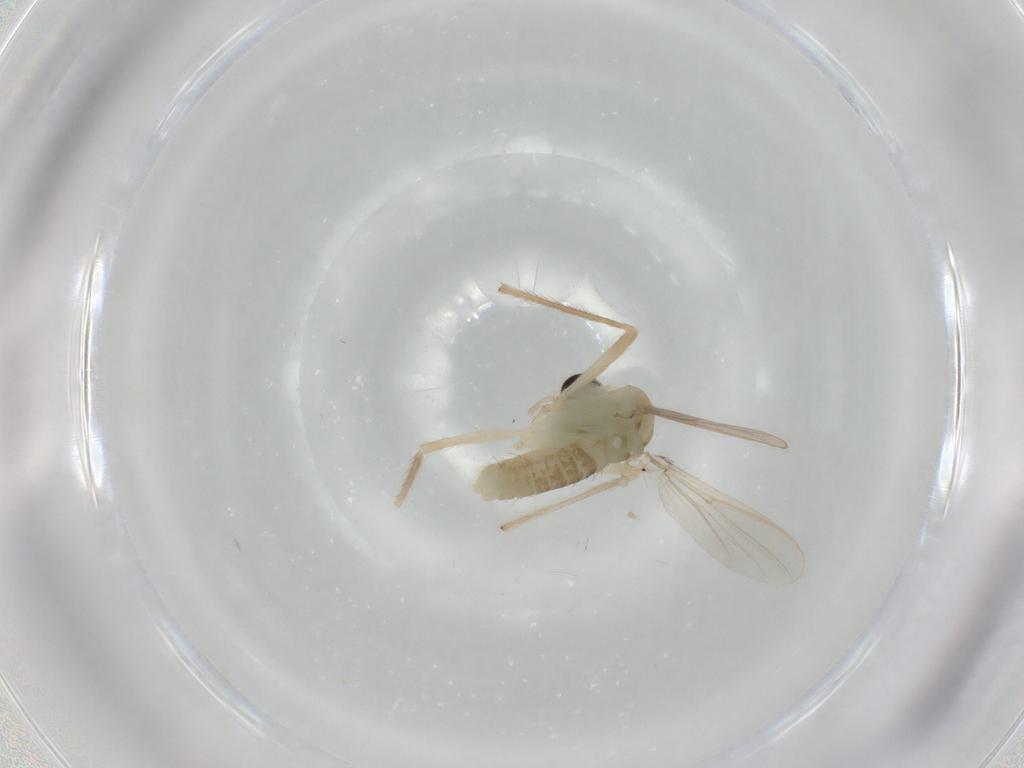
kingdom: Animalia
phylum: Arthropoda
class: Insecta
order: Diptera
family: Chironomidae
